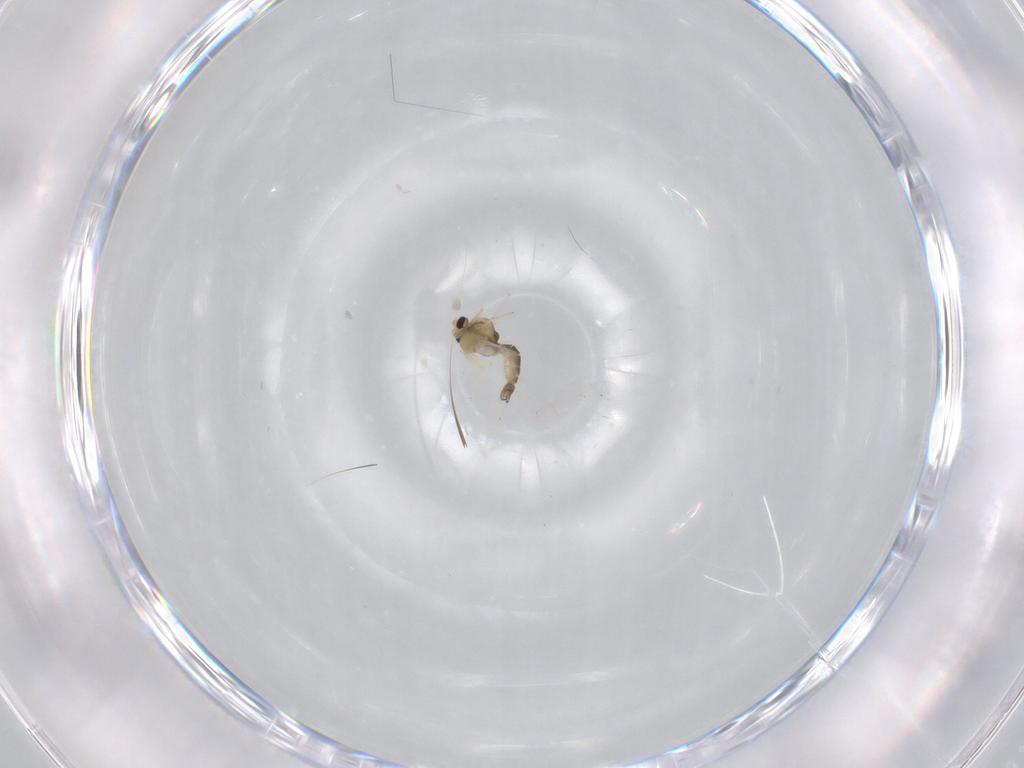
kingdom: Animalia
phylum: Arthropoda
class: Insecta
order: Diptera
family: Chironomidae
